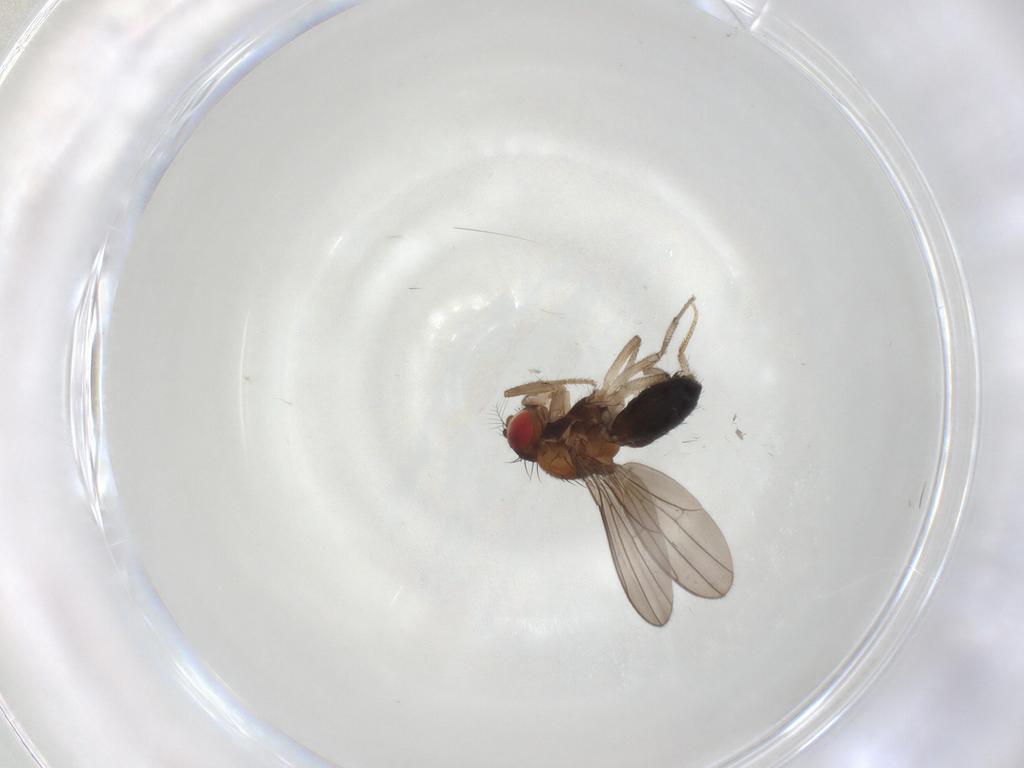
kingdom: Animalia
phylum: Arthropoda
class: Insecta
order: Diptera
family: Drosophilidae
